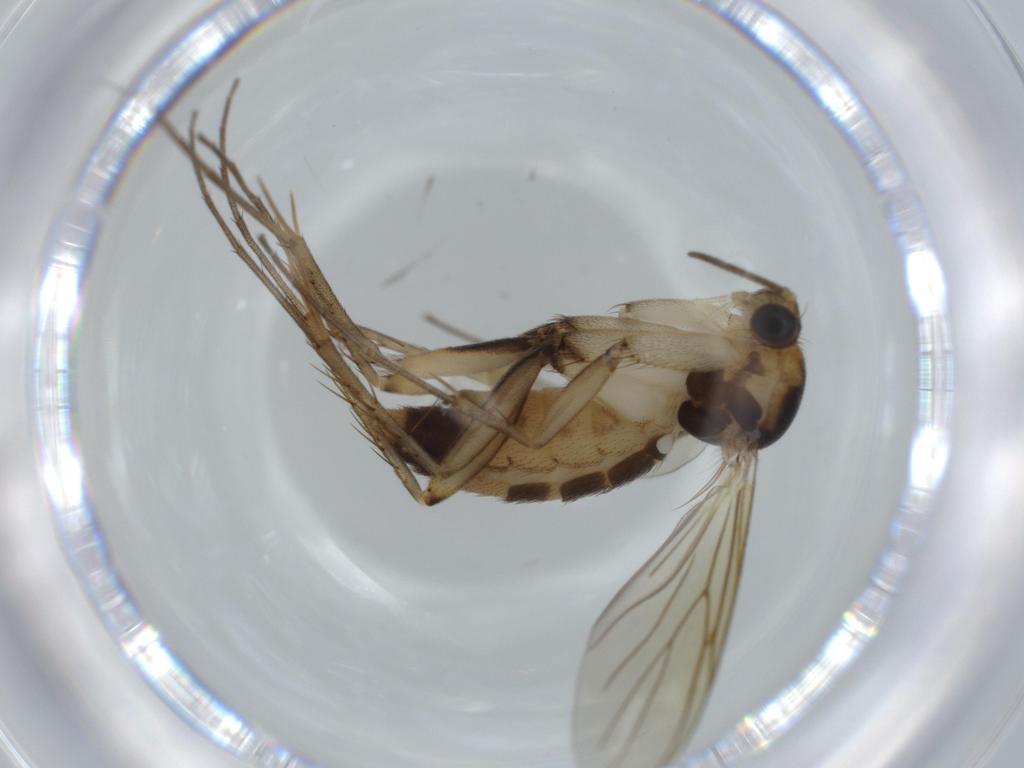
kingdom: Animalia
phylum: Arthropoda
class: Insecta
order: Diptera
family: Chironomidae
